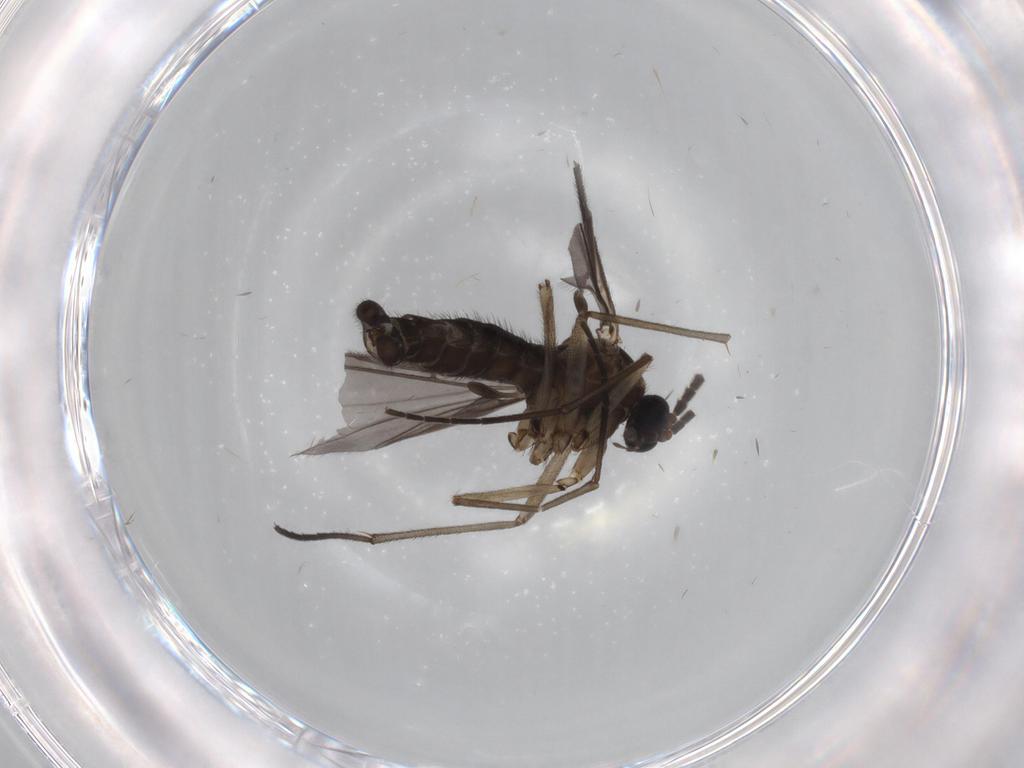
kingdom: Animalia
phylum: Arthropoda
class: Insecta
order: Diptera
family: Sciaridae
